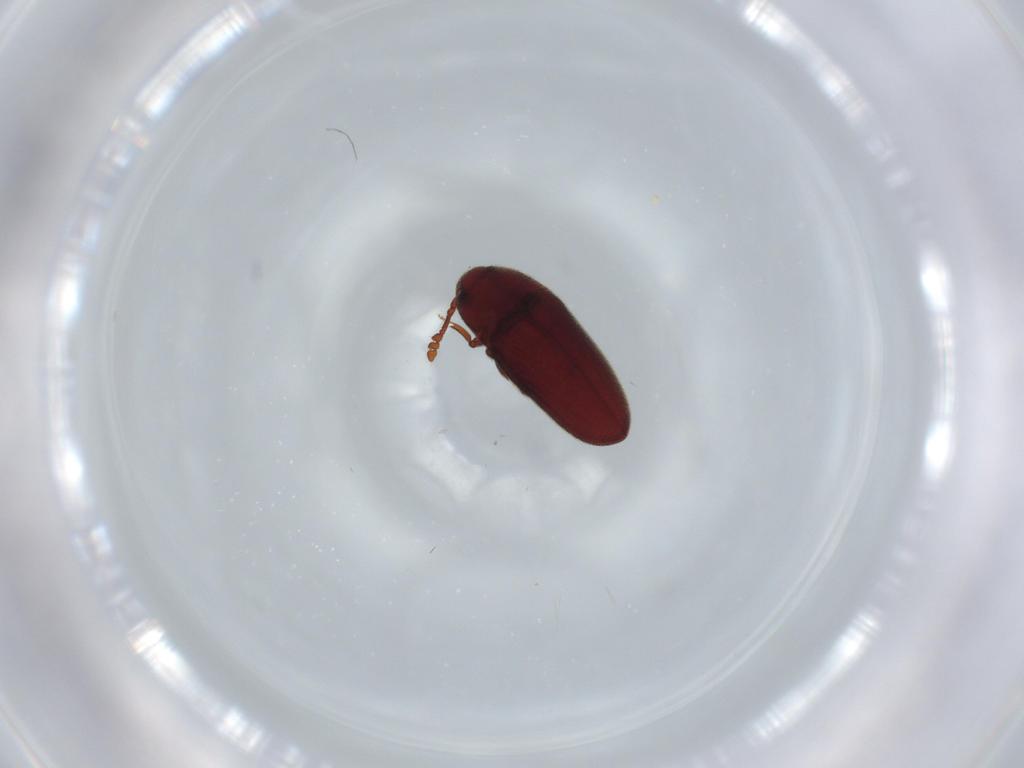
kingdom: Animalia
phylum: Arthropoda
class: Insecta
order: Coleoptera
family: Throscidae
